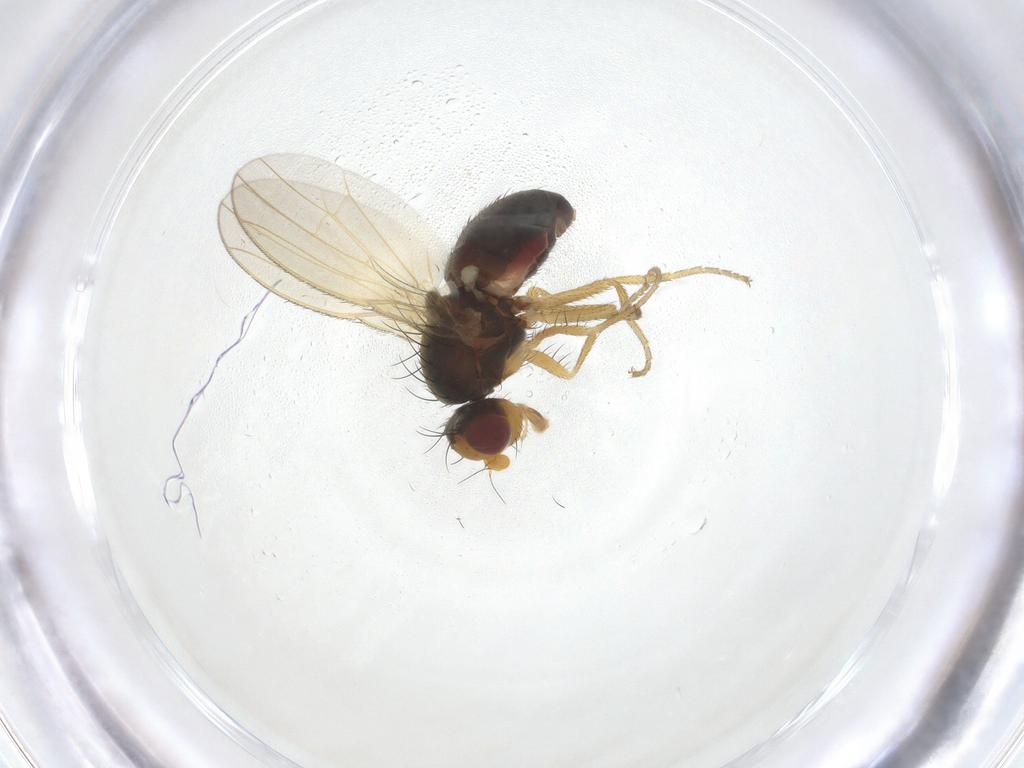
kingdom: Animalia
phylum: Arthropoda
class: Insecta
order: Diptera
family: Heleomyzidae
